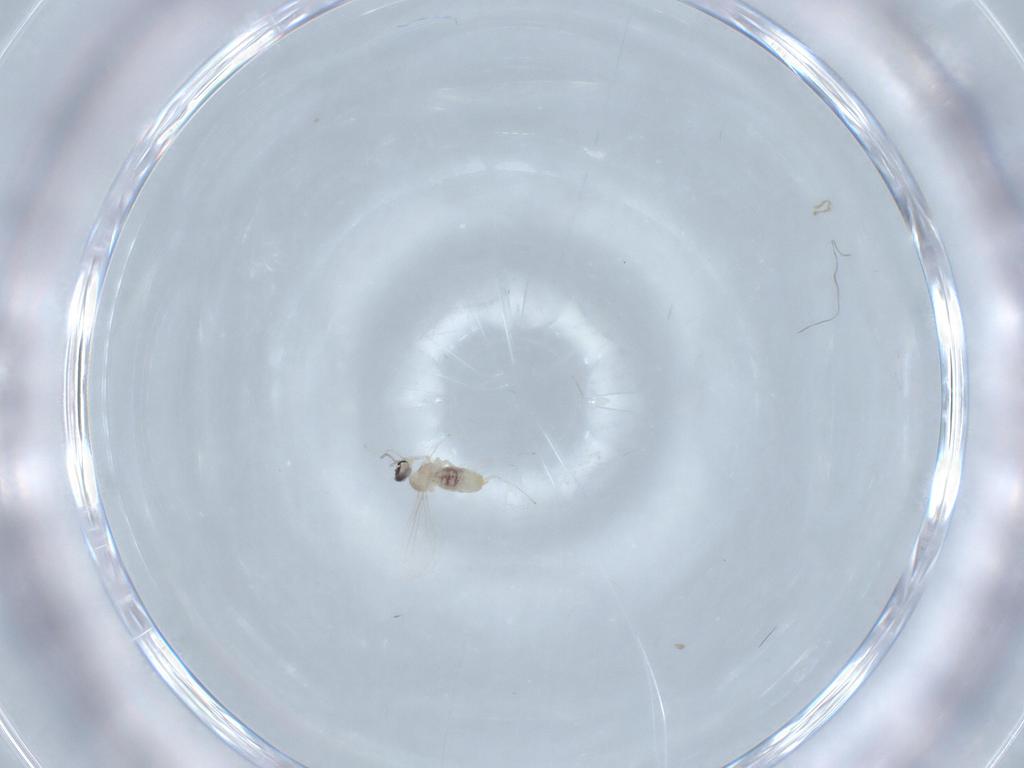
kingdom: Animalia
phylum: Arthropoda
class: Insecta
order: Diptera
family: Cecidomyiidae
